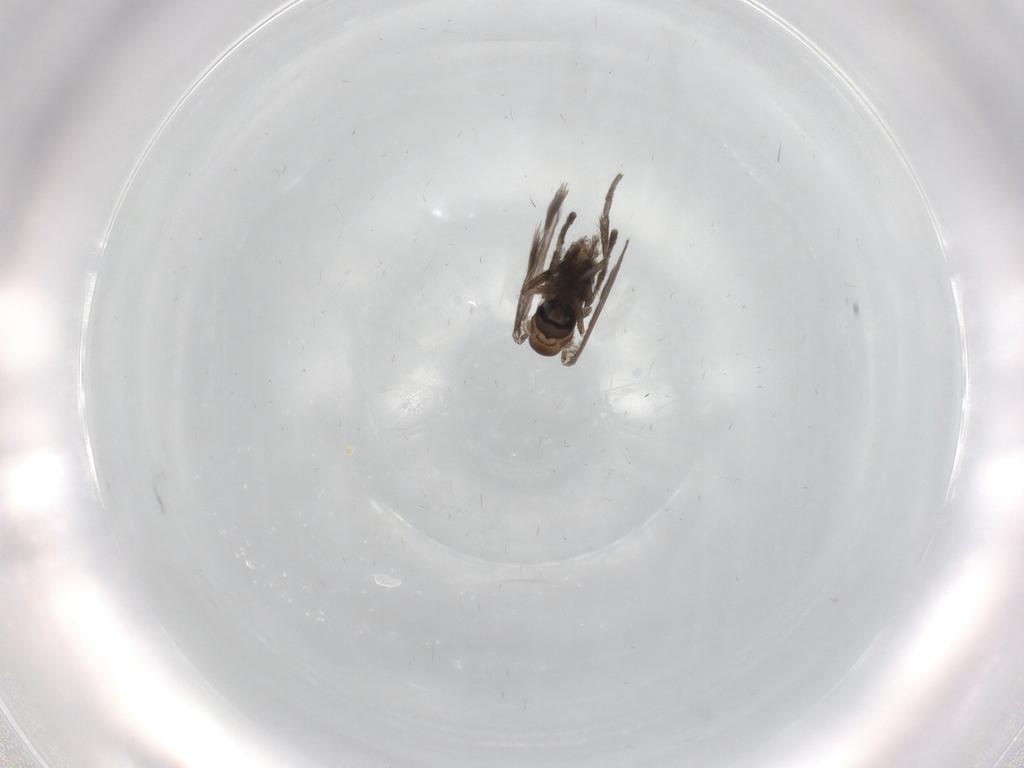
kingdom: Animalia
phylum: Arthropoda
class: Insecta
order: Diptera
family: Psychodidae
